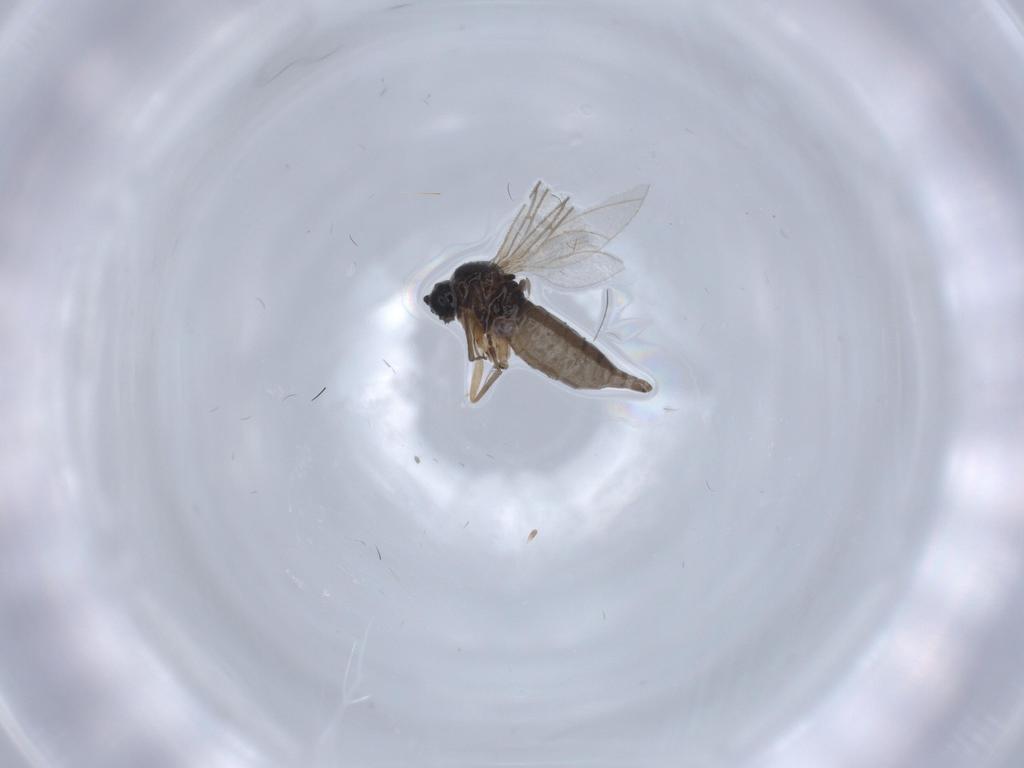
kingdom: Animalia
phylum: Arthropoda
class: Insecta
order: Diptera
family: Sciaridae
